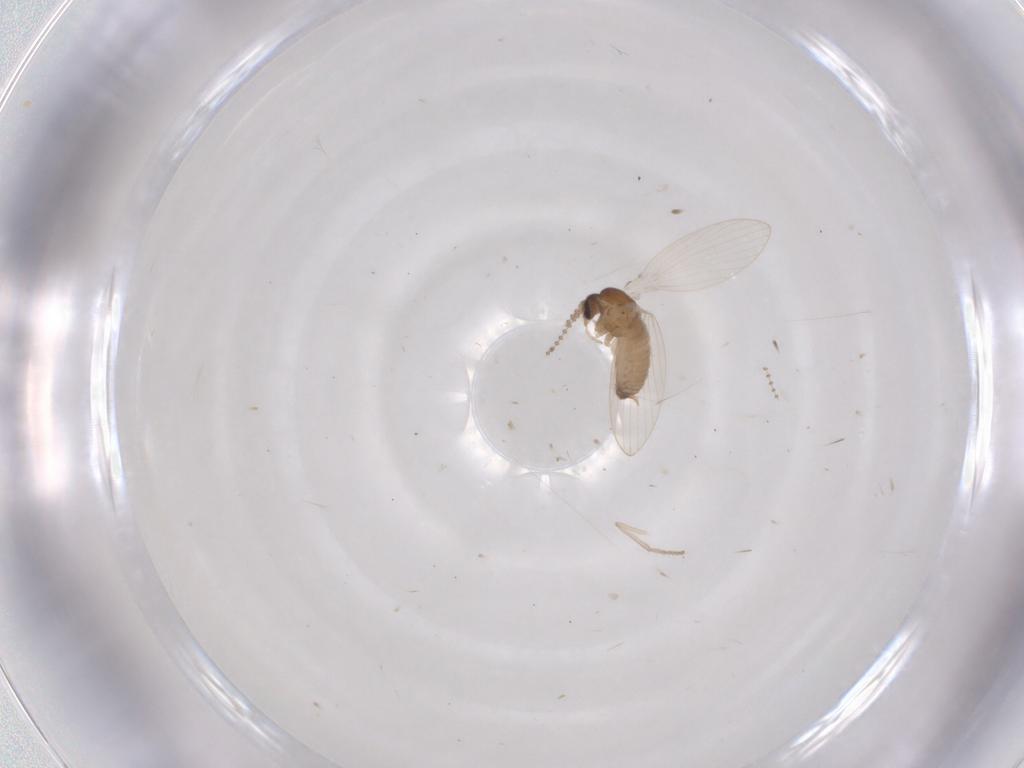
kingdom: Animalia
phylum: Arthropoda
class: Insecta
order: Diptera
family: Psychodidae
